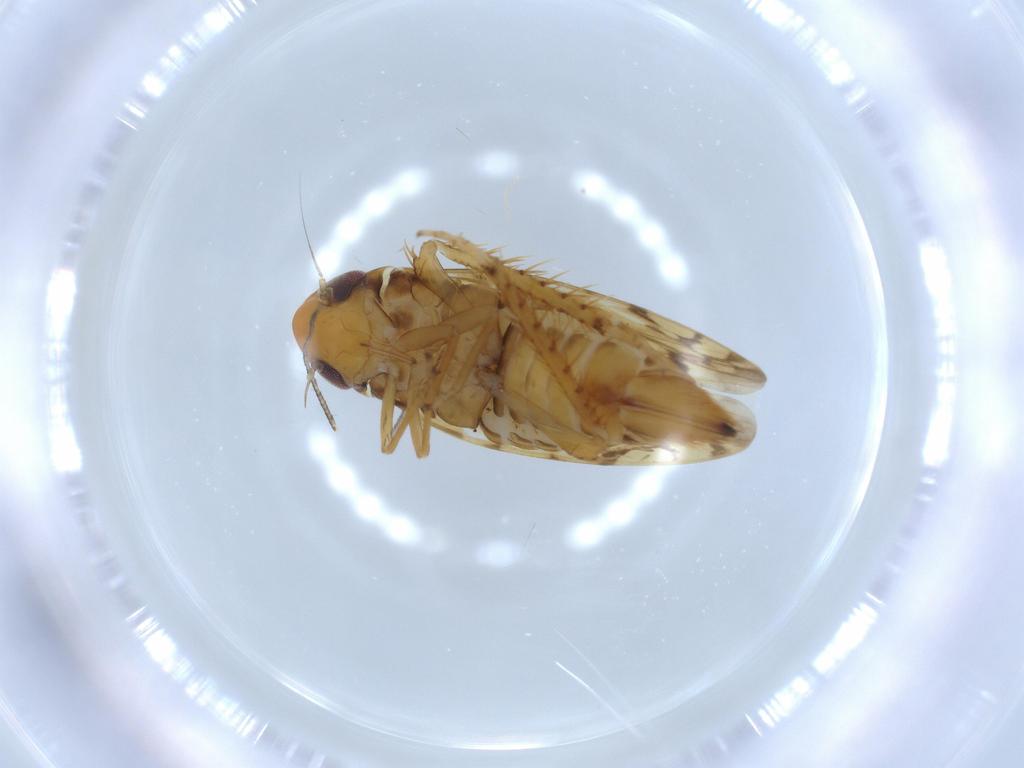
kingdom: Animalia
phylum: Arthropoda
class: Insecta
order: Hemiptera
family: Cicadellidae
